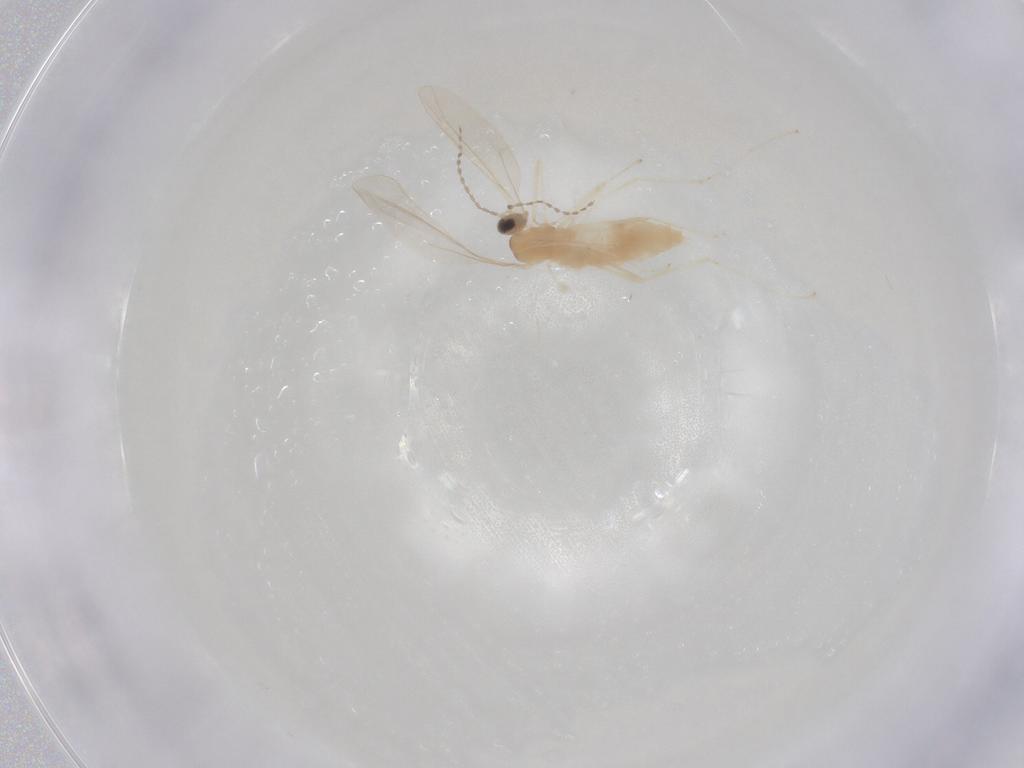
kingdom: Animalia
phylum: Arthropoda
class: Insecta
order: Diptera
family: Cecidomyiidae
